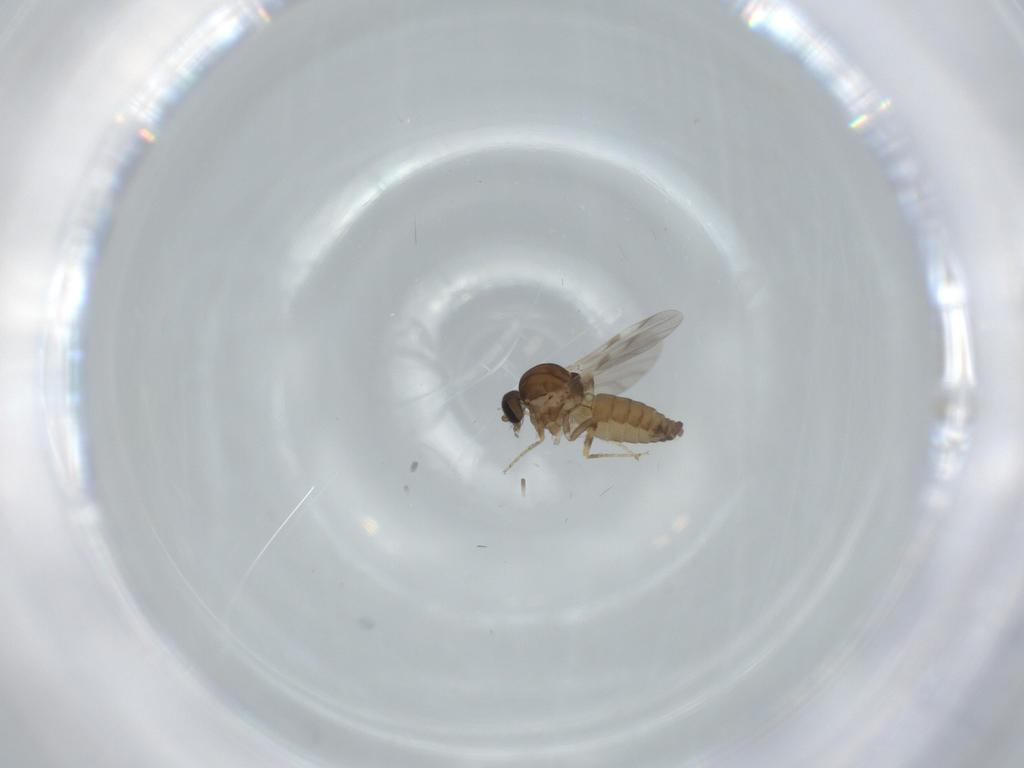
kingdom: Animalia
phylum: Arthropoda
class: Insecta
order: Diptera
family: Ceratopogonidae
